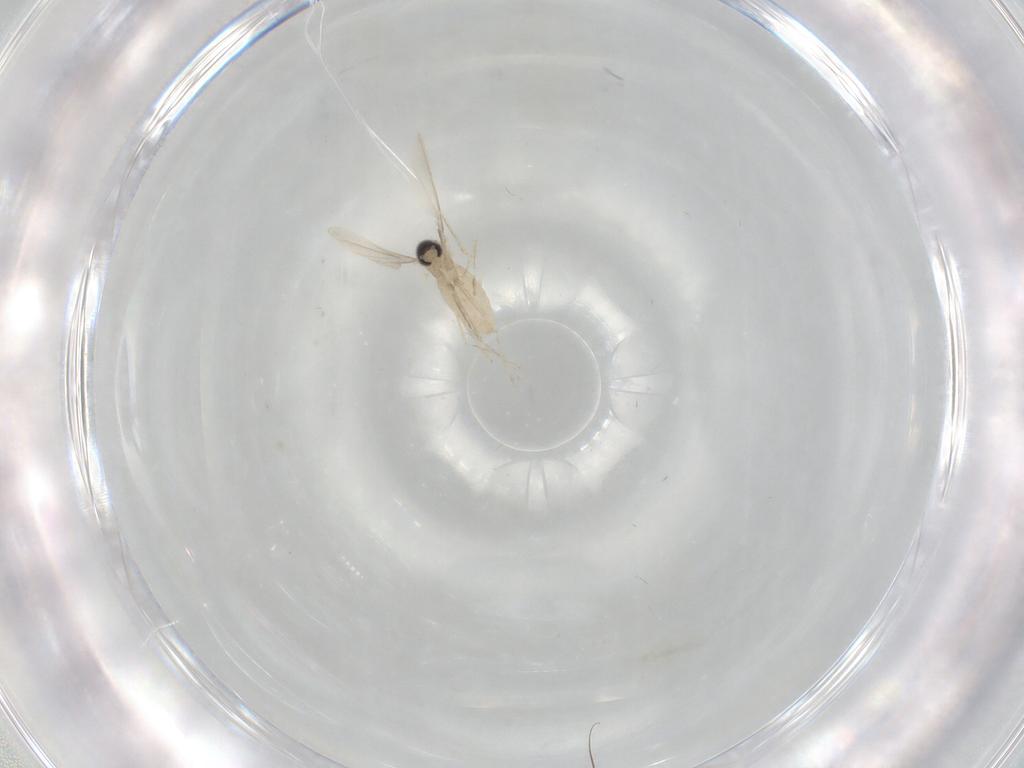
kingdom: Animalia
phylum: Arthropoda
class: Insecta
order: Diptera
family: Cecidomyiidae
